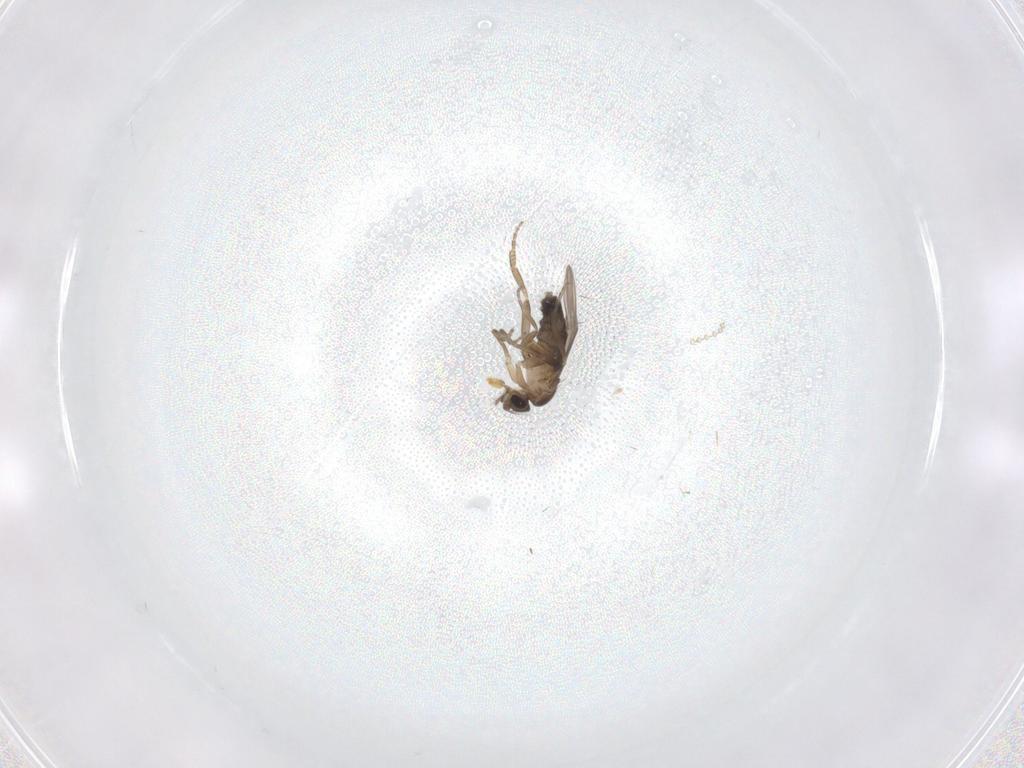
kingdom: Animalia
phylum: Arthropoda
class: Insecta
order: Diptera
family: Cecidomyiidae
